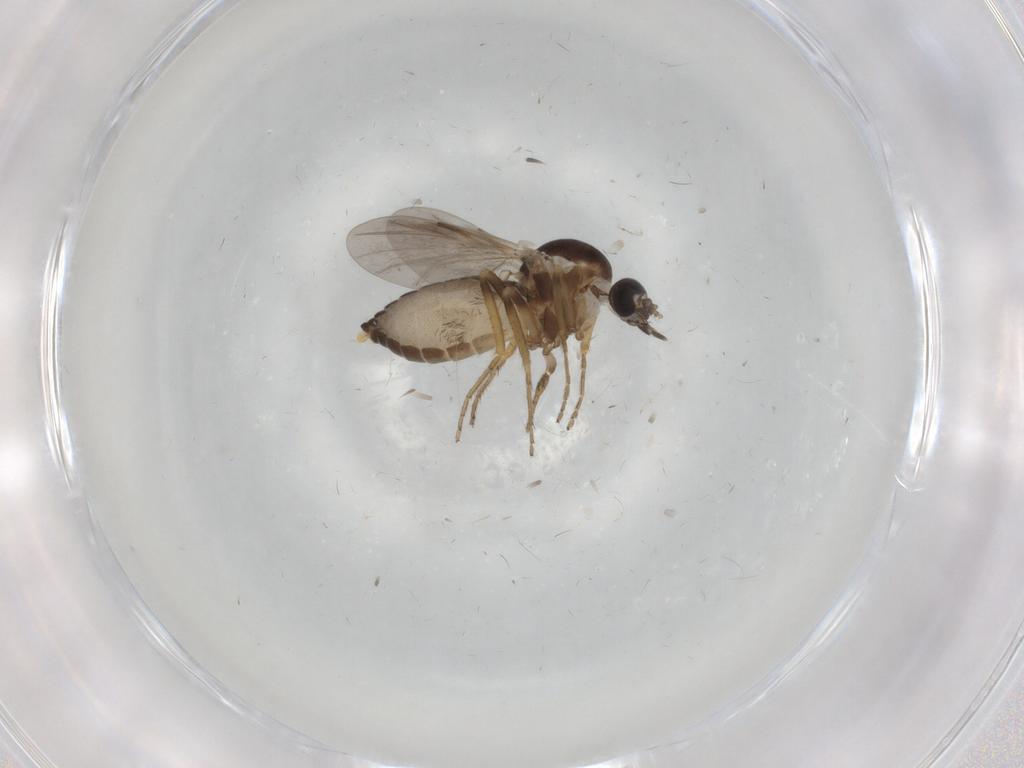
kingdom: Animalia
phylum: Arthropoda
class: Insecta
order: Diptera
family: Ceratopogonidae
